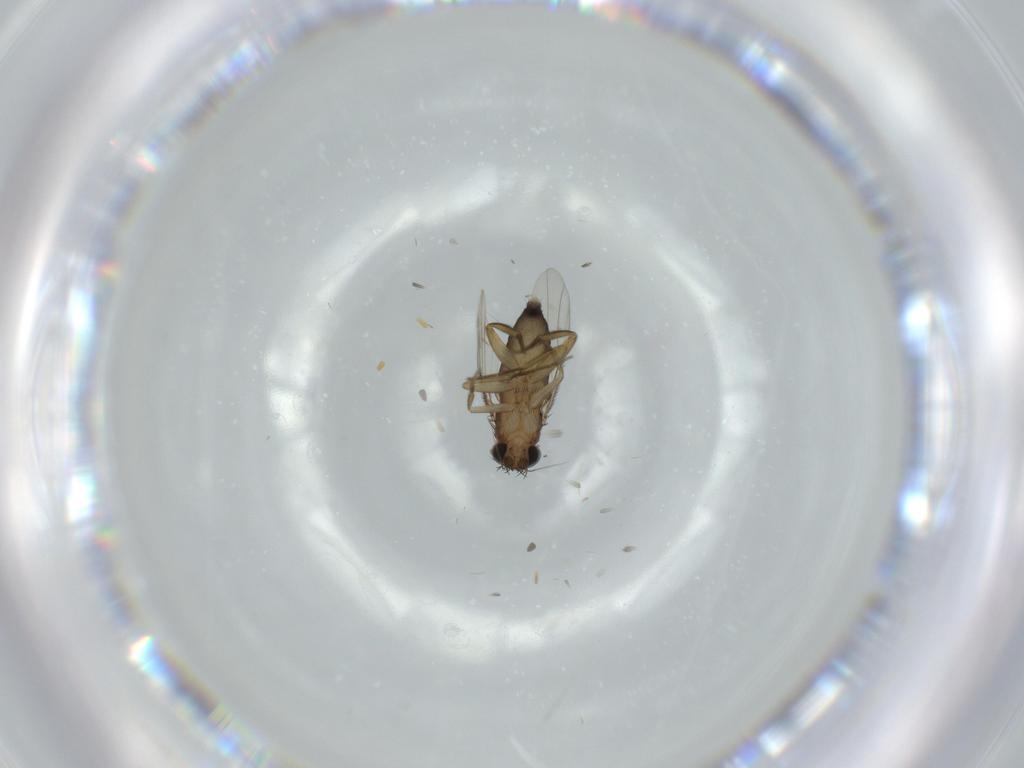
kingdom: Animalia
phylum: Arthropoda
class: Insecta
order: Diptera
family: Phoridae
